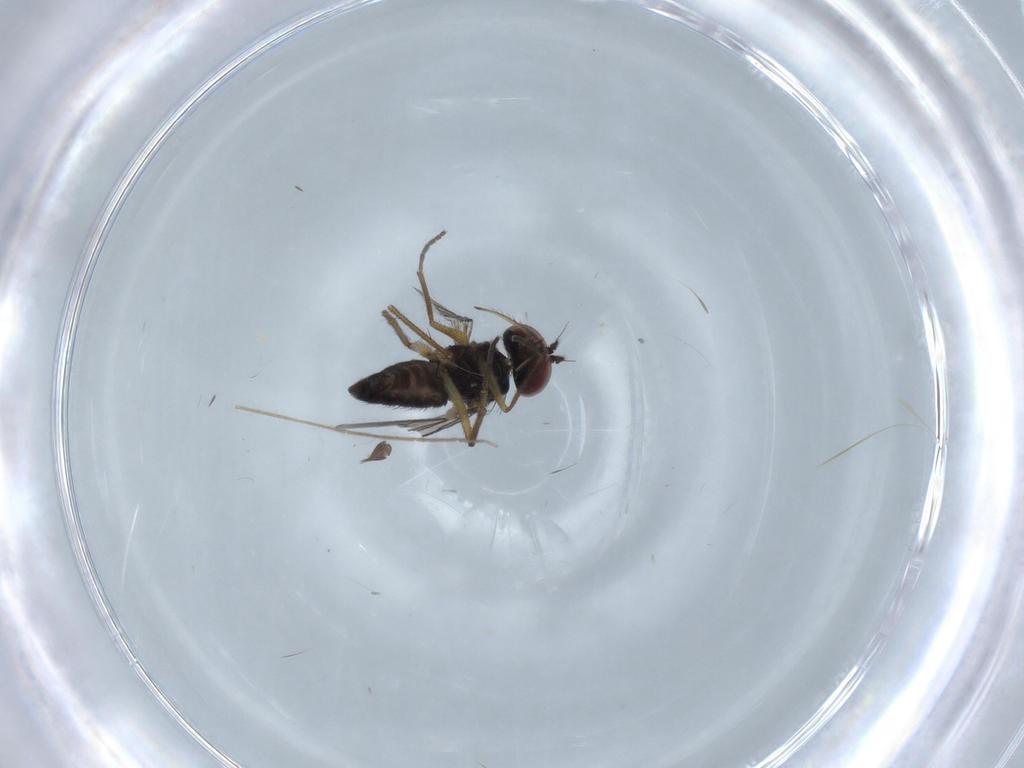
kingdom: Animalia
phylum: Arthropoda
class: Insecta
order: Diptera
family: Dolichopodidae
